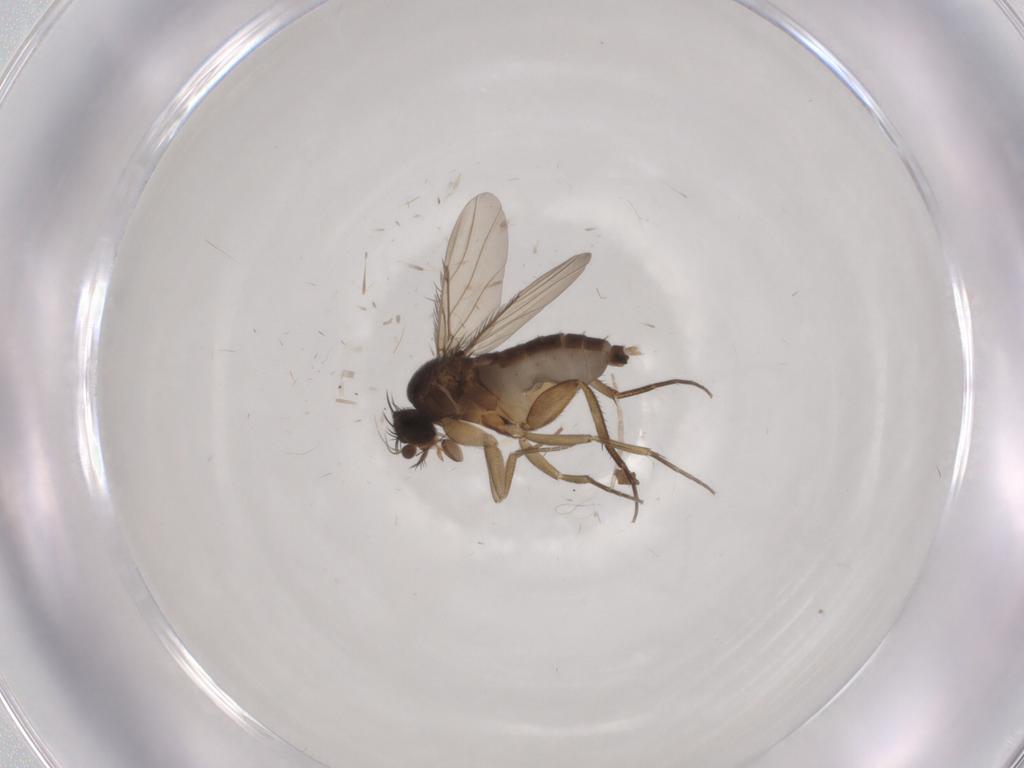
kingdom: Animalia
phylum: Arthropoda
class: Insecta
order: Diptera
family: Phoridae
